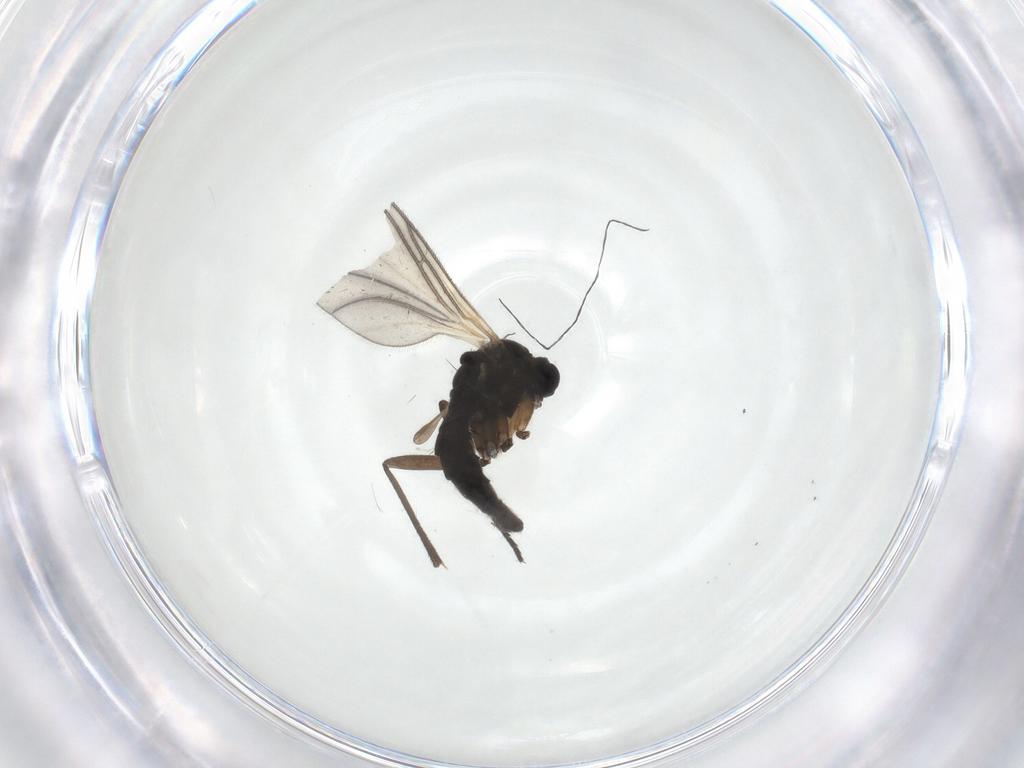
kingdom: Animalia
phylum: Arthropoda
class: Insecta
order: Diptera
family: Sciaridae
